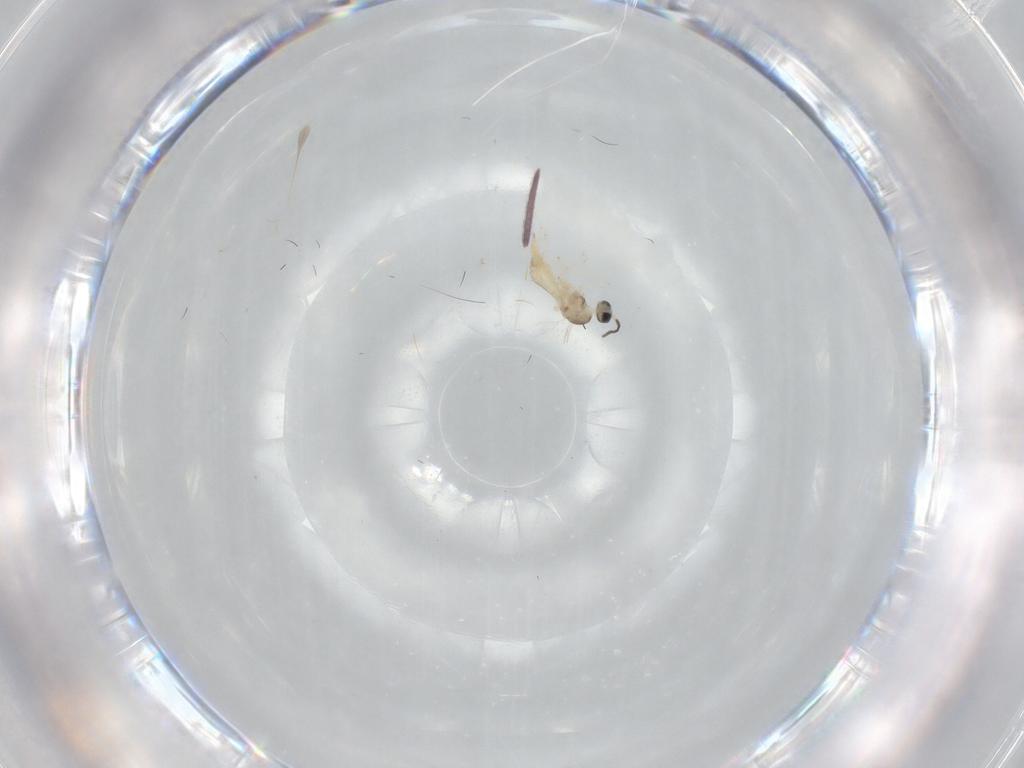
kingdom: Animalia
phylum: Arthropoda
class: Insecta
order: Diptera
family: Cecidomyiidae
